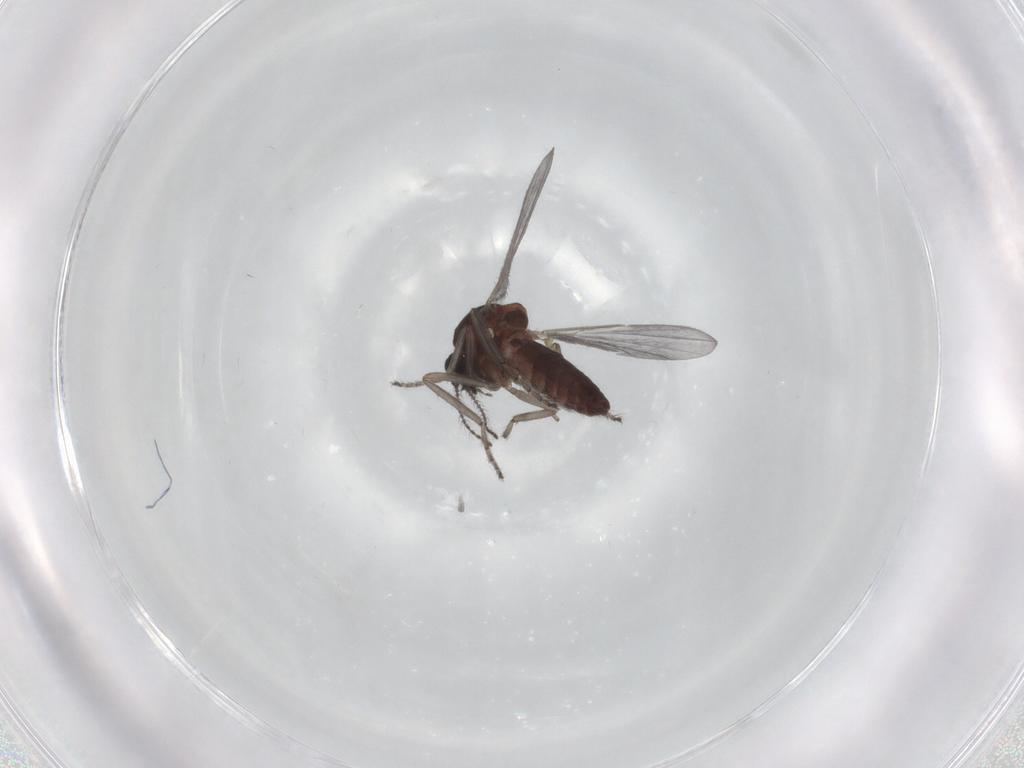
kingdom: Animalia
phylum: Arthropoda
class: Insecta
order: Diptera
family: Ceratopogonidae
